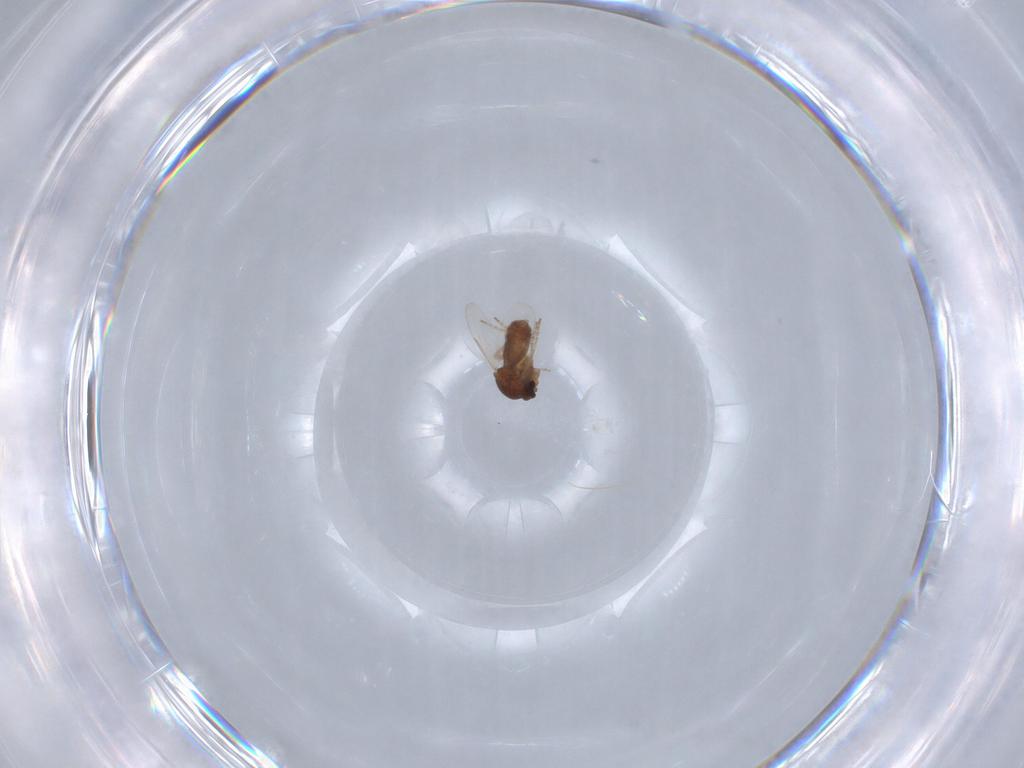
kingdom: Animalia
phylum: Arthropoda
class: Insecta
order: Diptera
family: Ceratopogonidae
